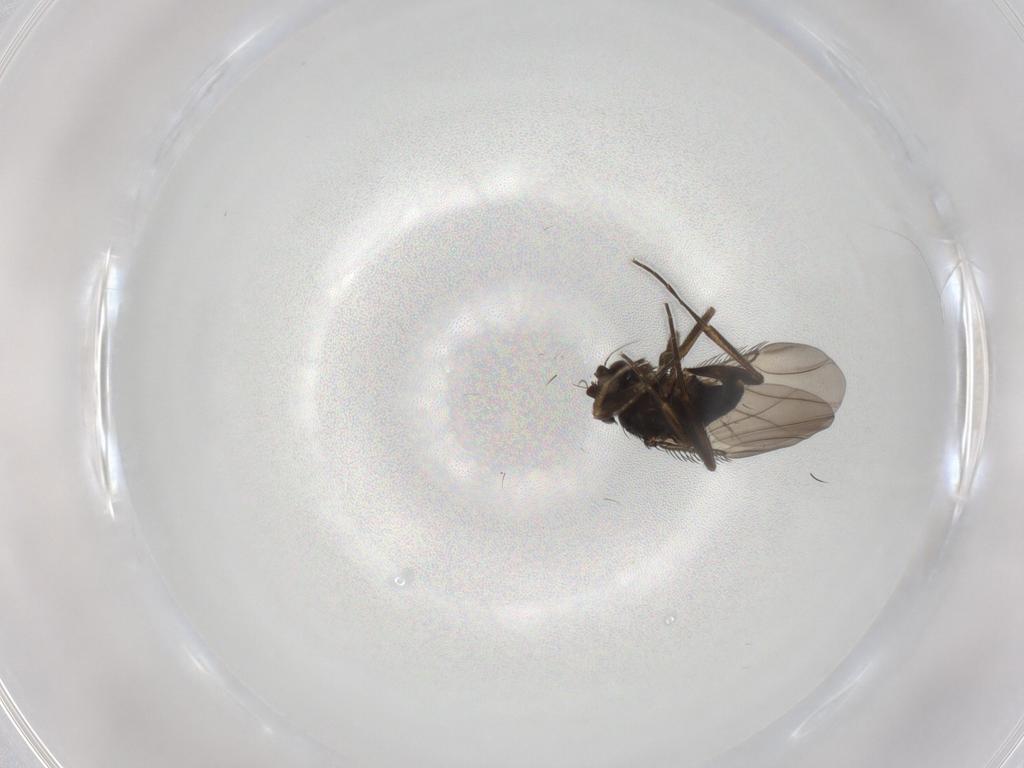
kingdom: Animalia
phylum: Arthropoda
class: Insecta
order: Diptera
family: Phoridae
